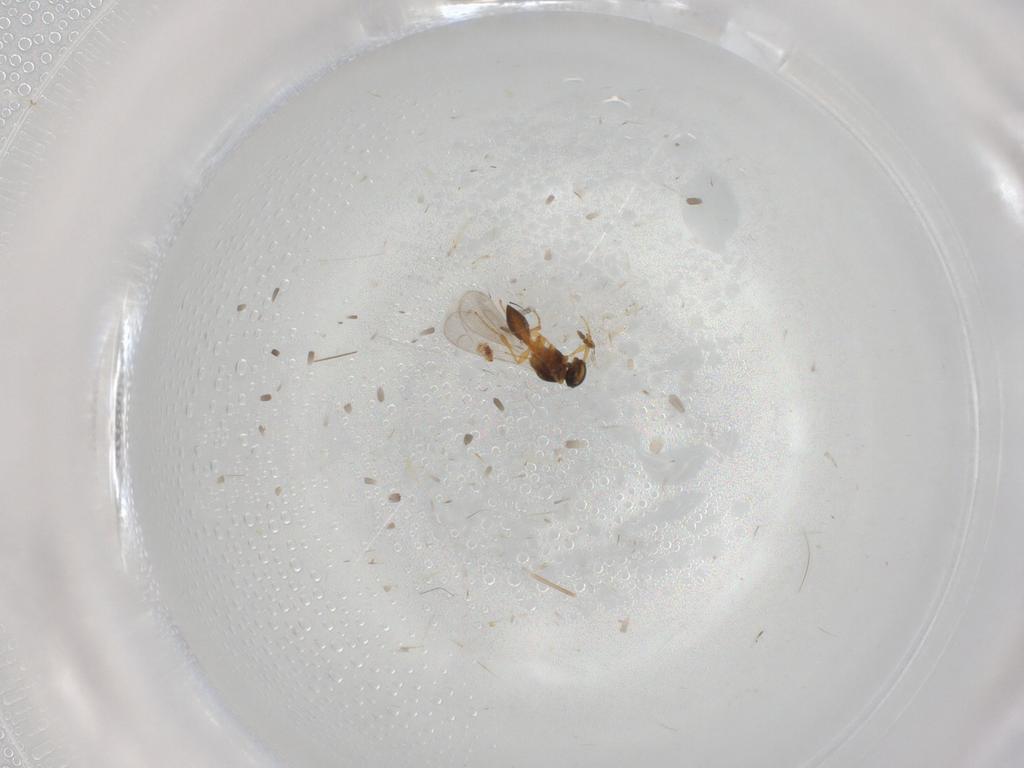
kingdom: Animalia
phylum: Arthropoda
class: Insecta
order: Hymenoptera
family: Platygastridae
